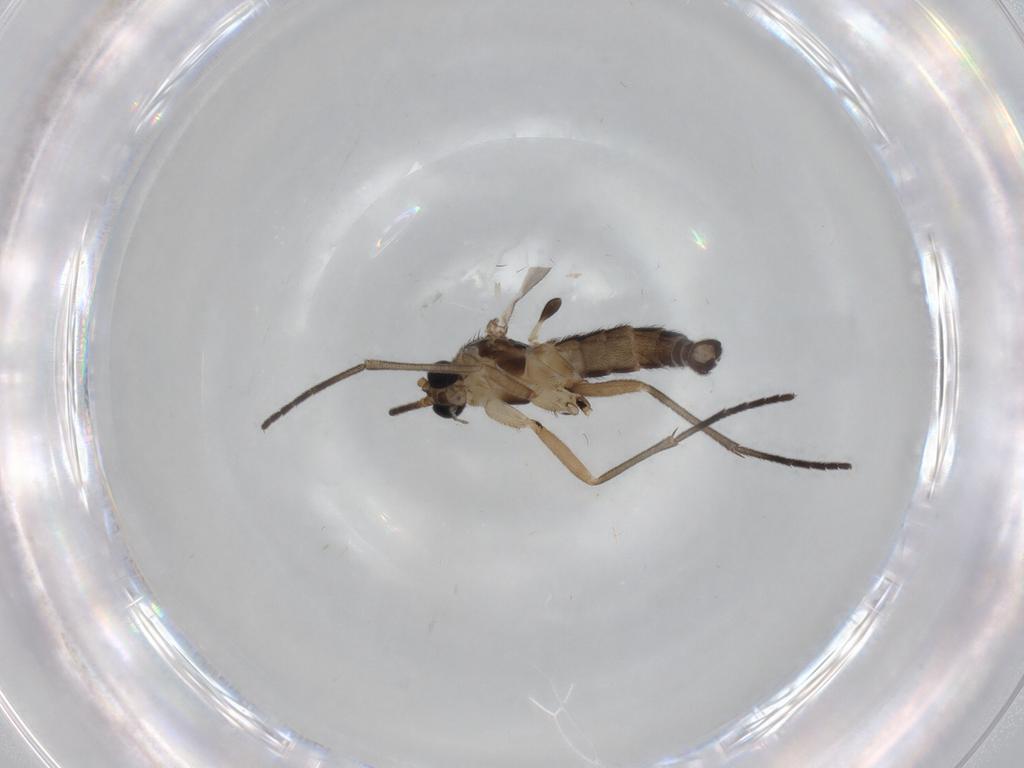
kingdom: Animalia
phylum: Arthropoda
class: Insecta
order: Diptera
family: Sciaridae
